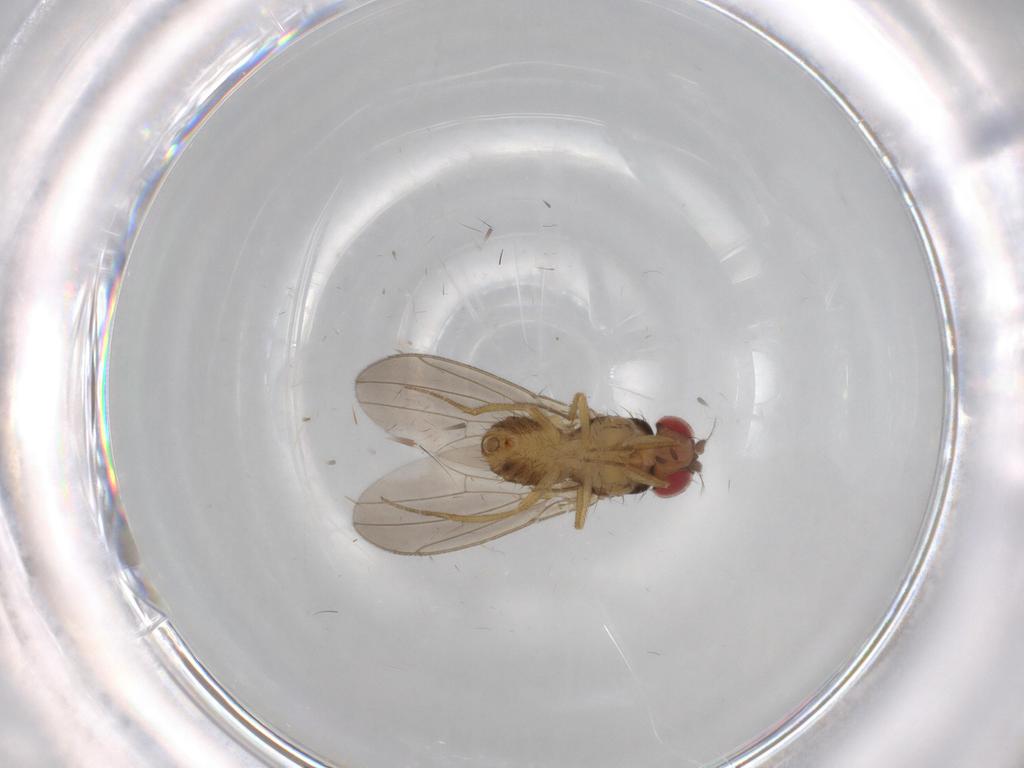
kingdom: Animalia
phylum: Arthropoda
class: Insecta
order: Diptera
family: Drosophilidae
